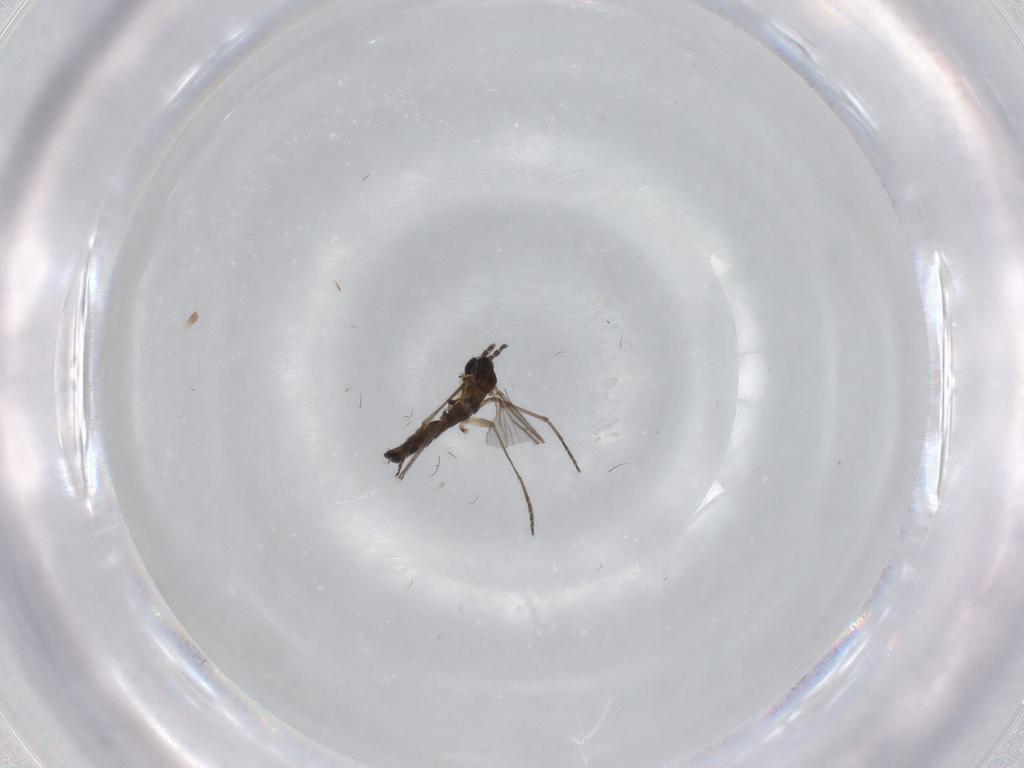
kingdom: Animalia
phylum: Arthropoda
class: Insecta
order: Diptera
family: Sciaridae
